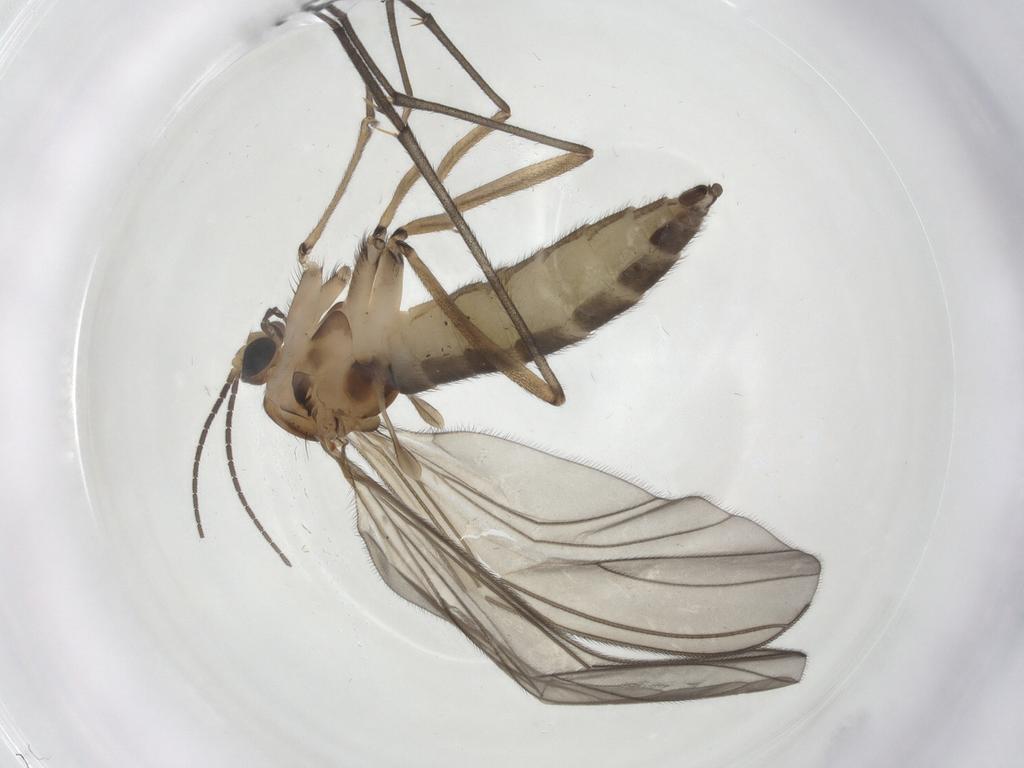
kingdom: Animalia
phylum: Arthropoda
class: Insecta
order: Diptera
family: Sciaridae
